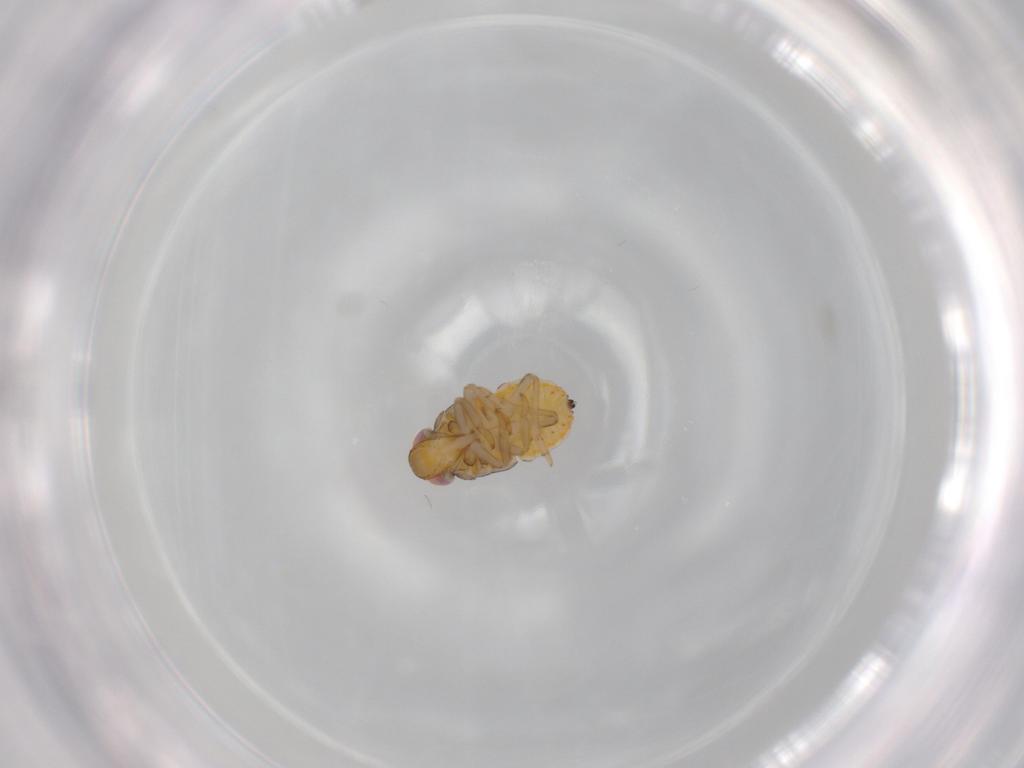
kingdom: Animalia
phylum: Arthropoda
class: Insecta
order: Hemiptera
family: Issidae
